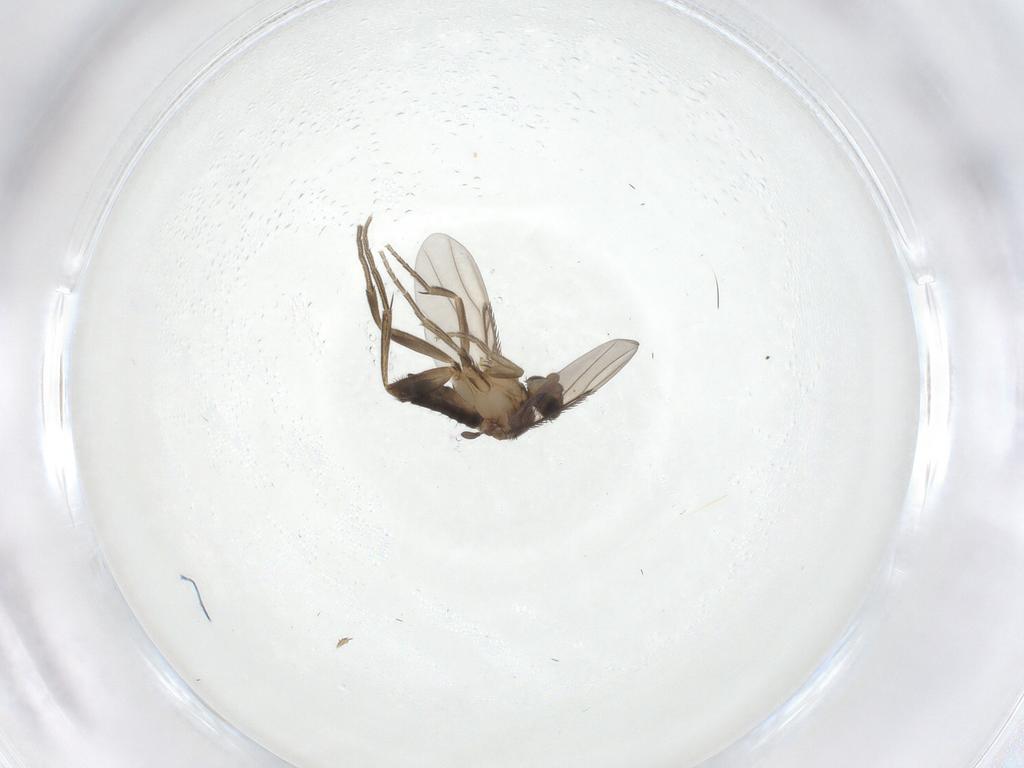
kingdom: Animalia
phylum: Arthropoda
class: Insecta
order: Diptera
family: Phoridae
